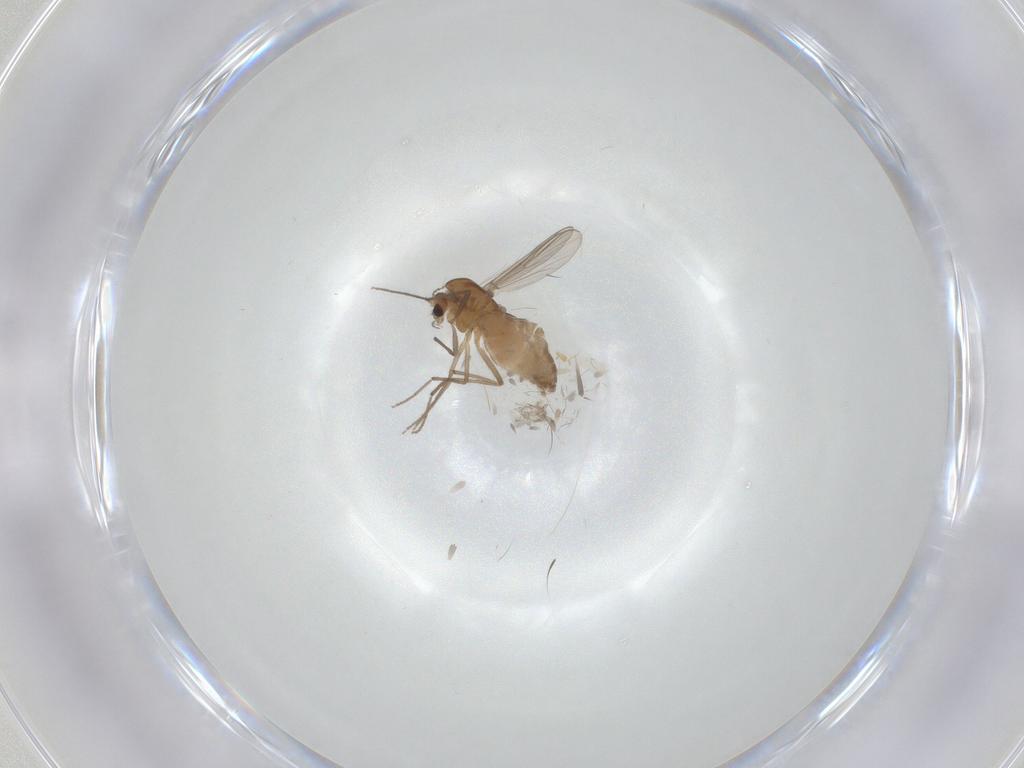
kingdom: Animalia
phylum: Arthropoda
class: Insecta
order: Diptera
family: Chironomidae
